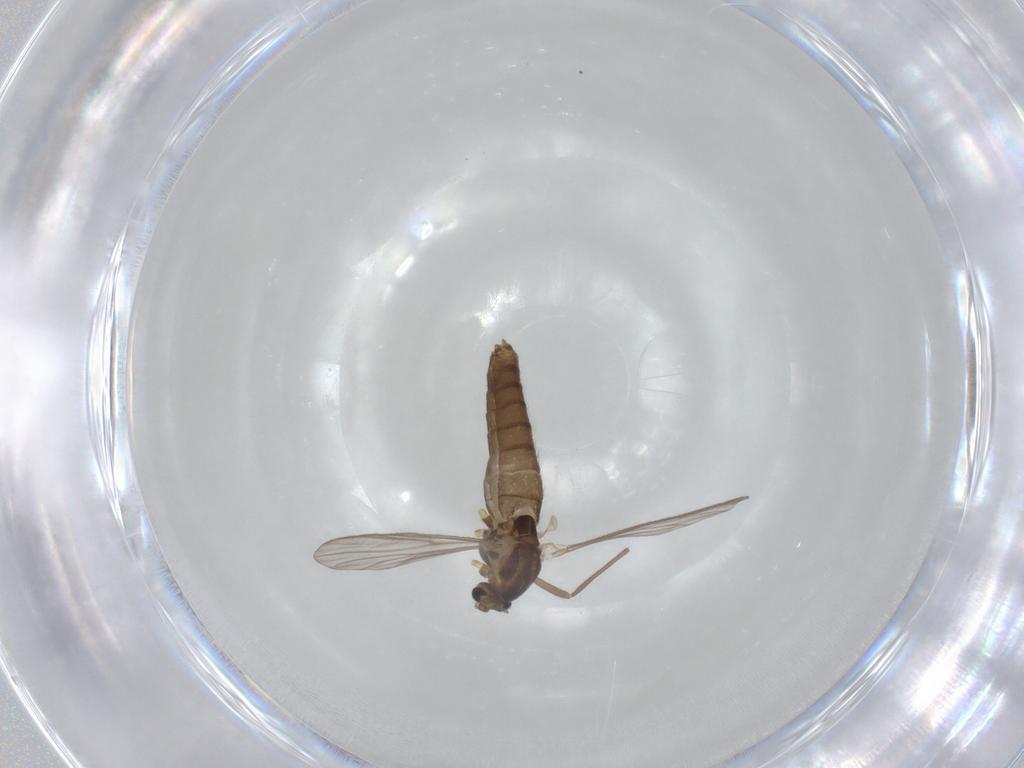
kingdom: Animalia
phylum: Arthropoda
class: Insecta
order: Diptera
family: Chironomidae
